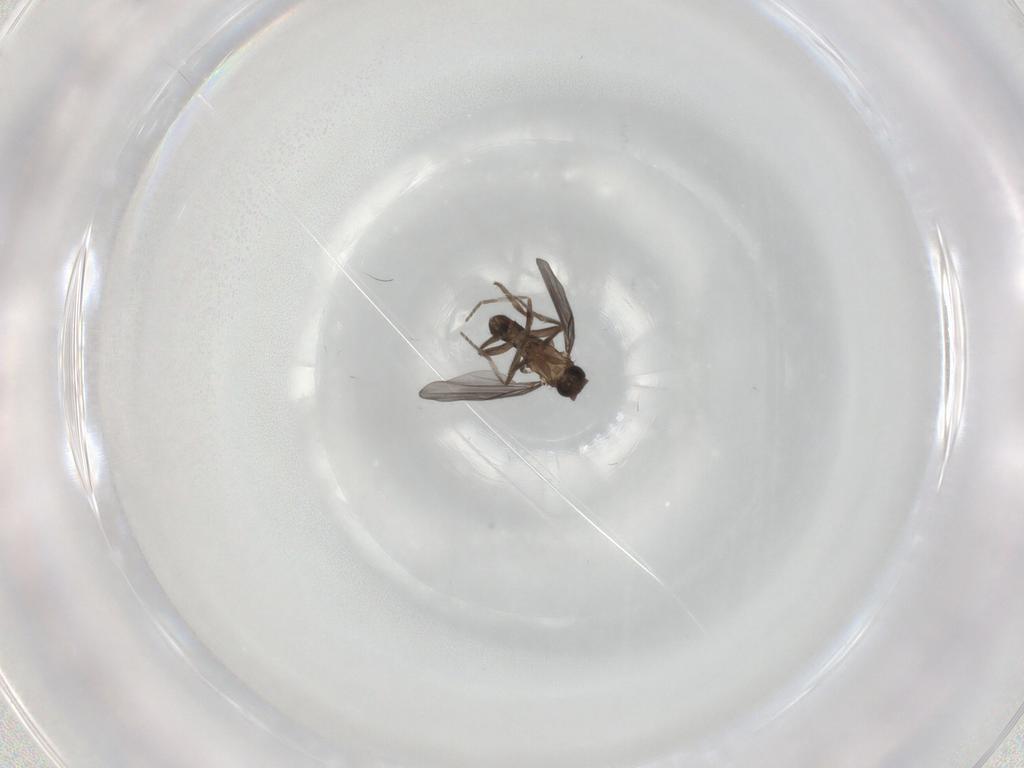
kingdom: Animalia
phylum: Arthropoda
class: Insecta
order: Diptera
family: Phoridae
